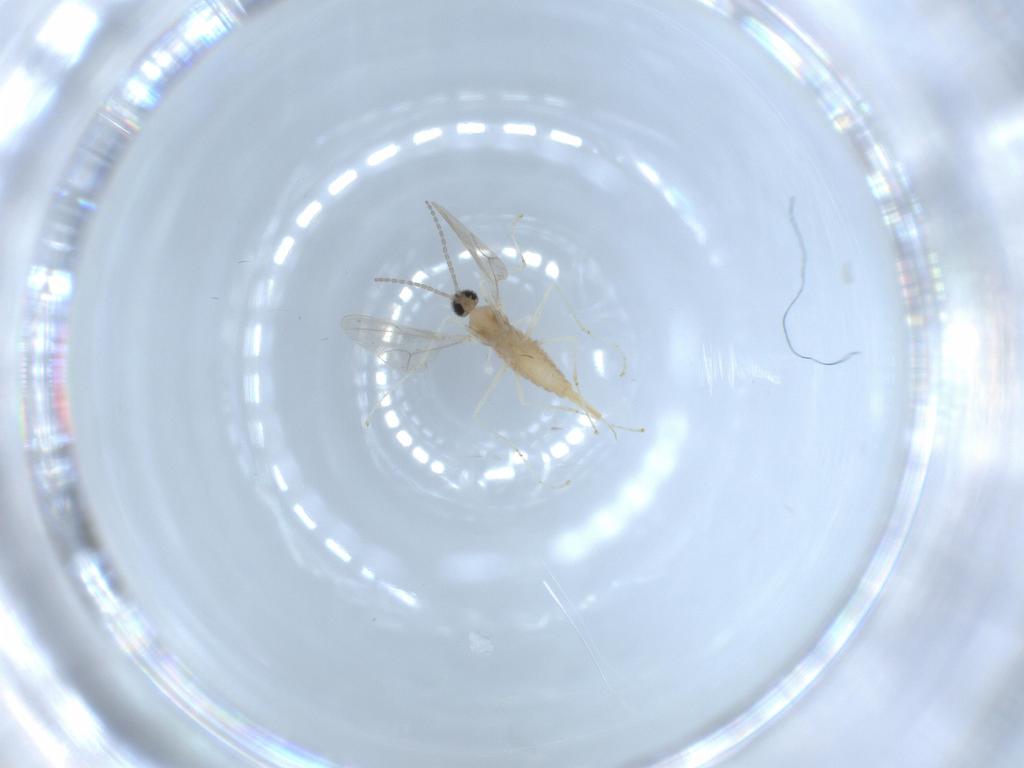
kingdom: Animalia
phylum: Arthropoda
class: Insecta
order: Diptera
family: Cecidomyiidae
